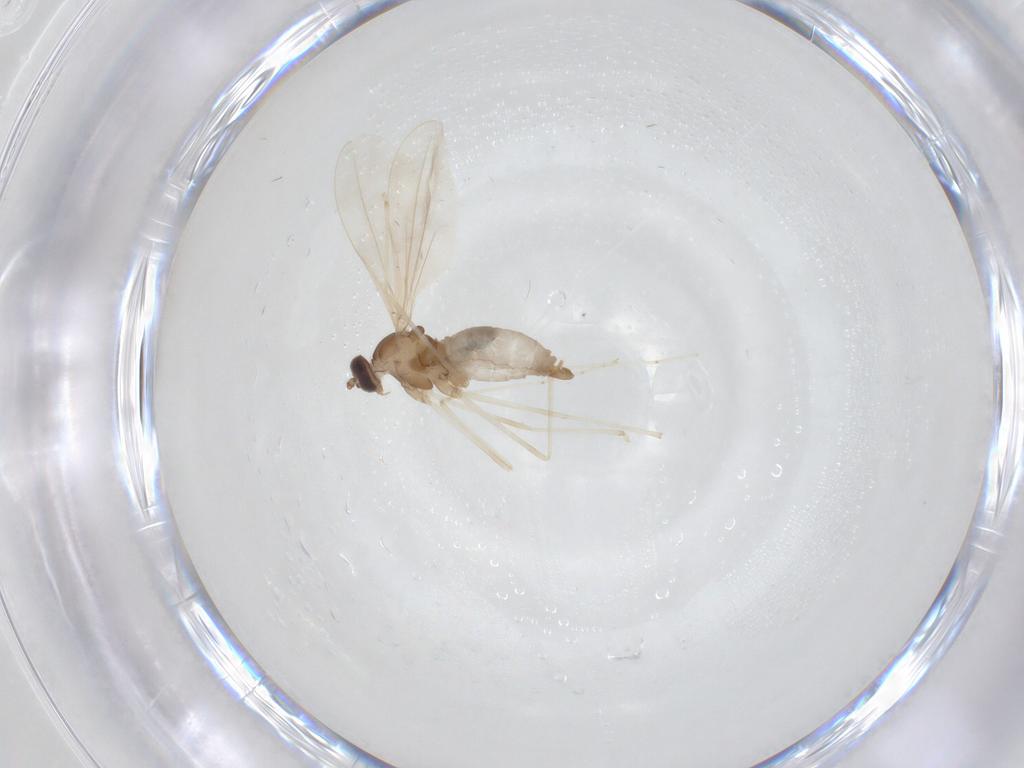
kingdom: Animalia
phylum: Arthropoda
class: Insecta
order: Diptera
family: Cecidomyiidae
